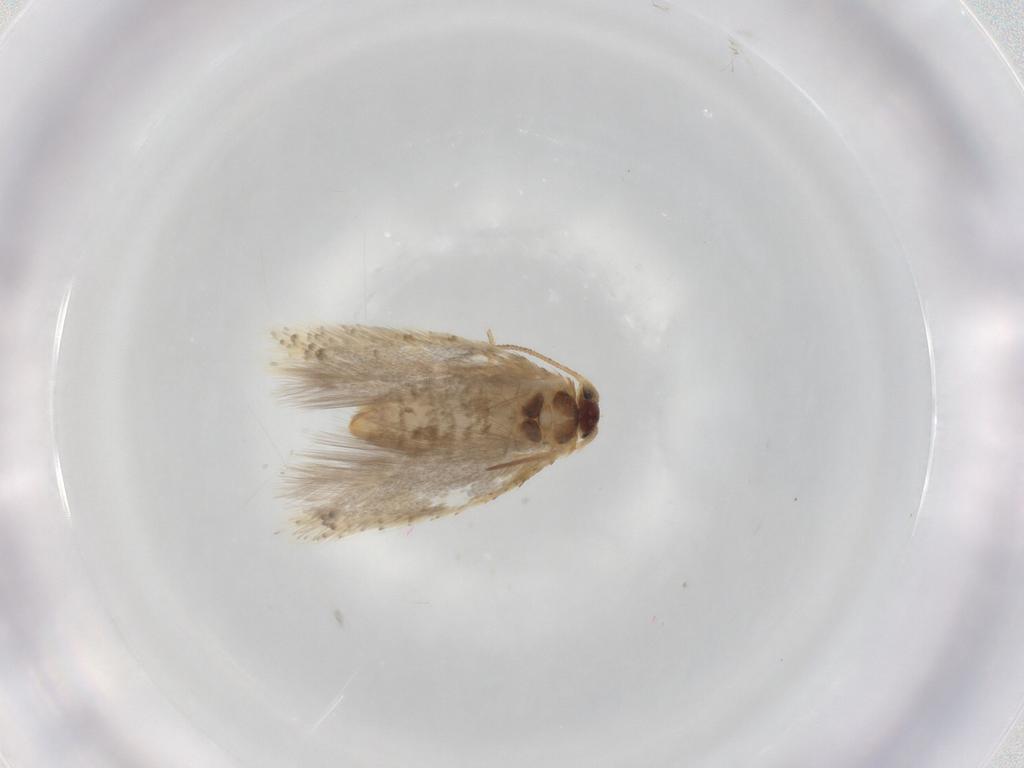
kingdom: Animalia
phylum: Arthropoda
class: Insecta
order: Lepidoptera
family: Nepticulidae
